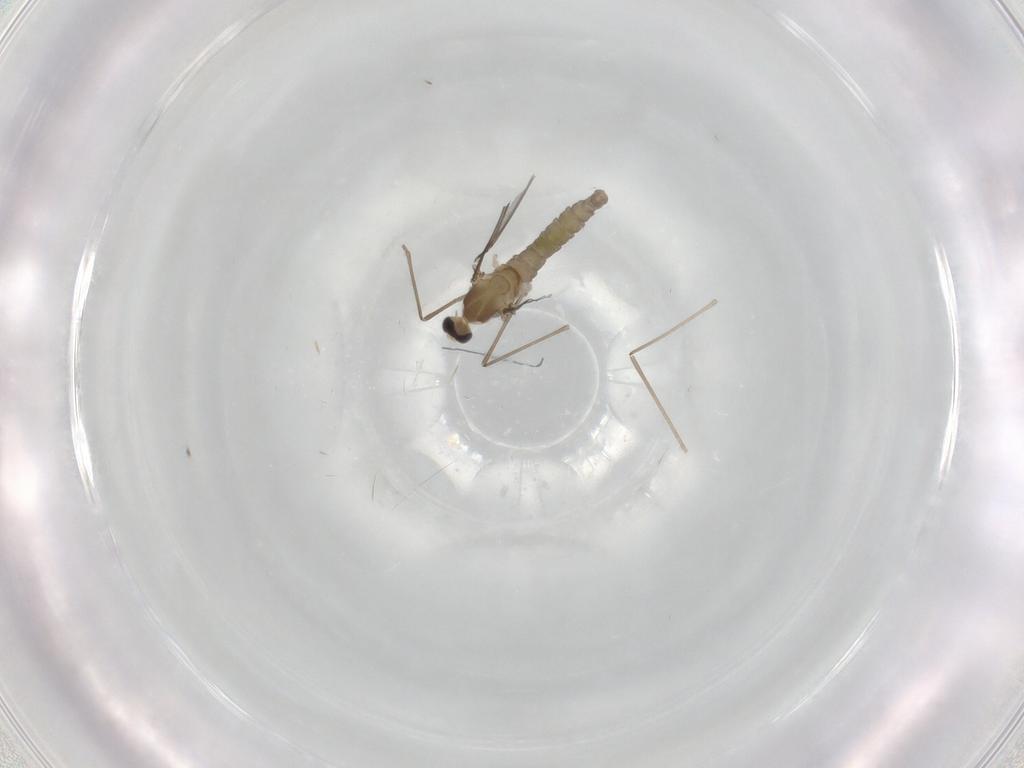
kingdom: Animalia
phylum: Arthropoda
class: Insecta
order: Diptera
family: Cecidomyiidae
